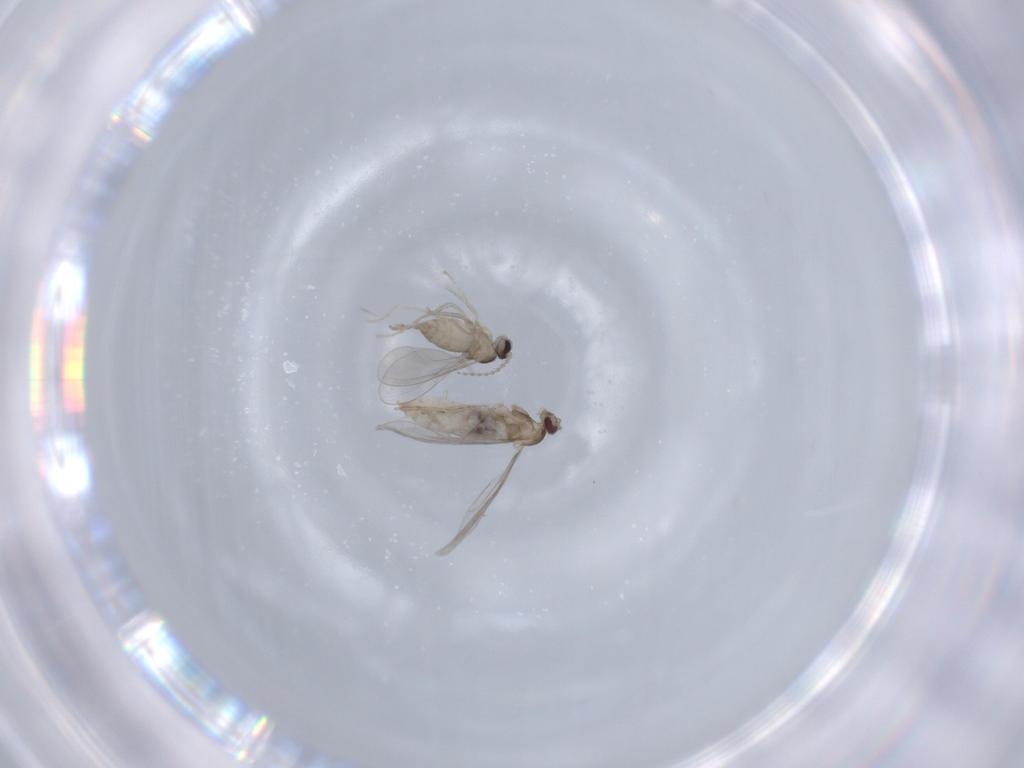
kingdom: Animalia
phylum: Arthropoda
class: Insecta
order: Diptera
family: Cecidomyiidae
